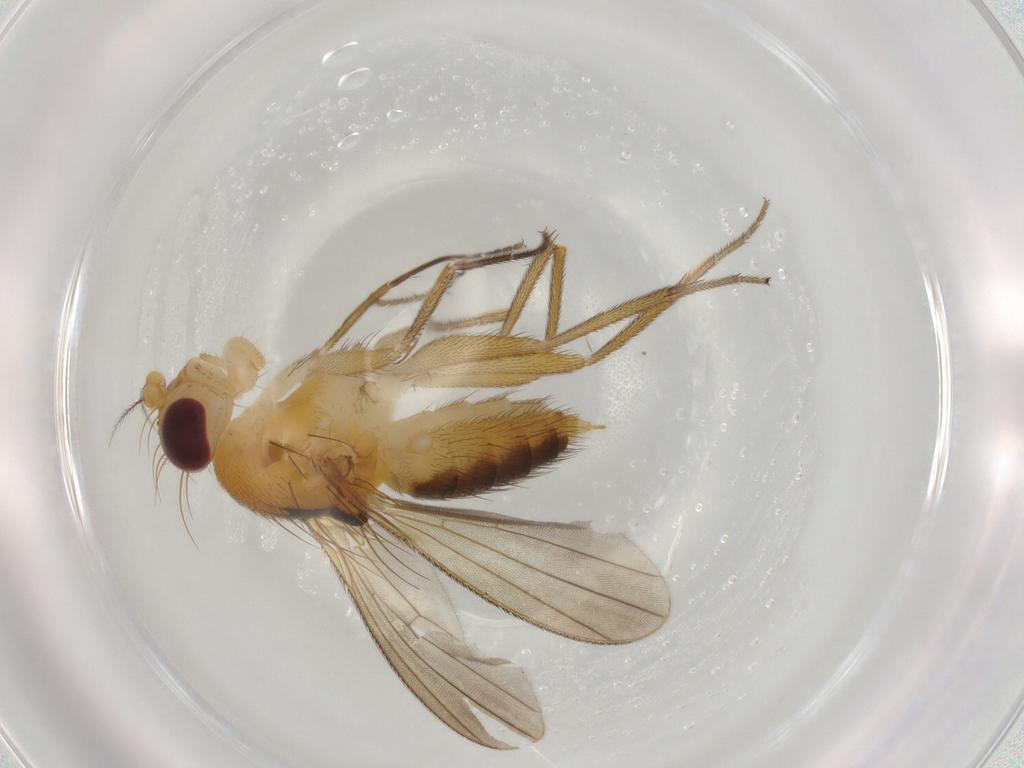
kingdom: Animalia
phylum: Arthropoda
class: Insecta
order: Diptera
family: Clusiidae
